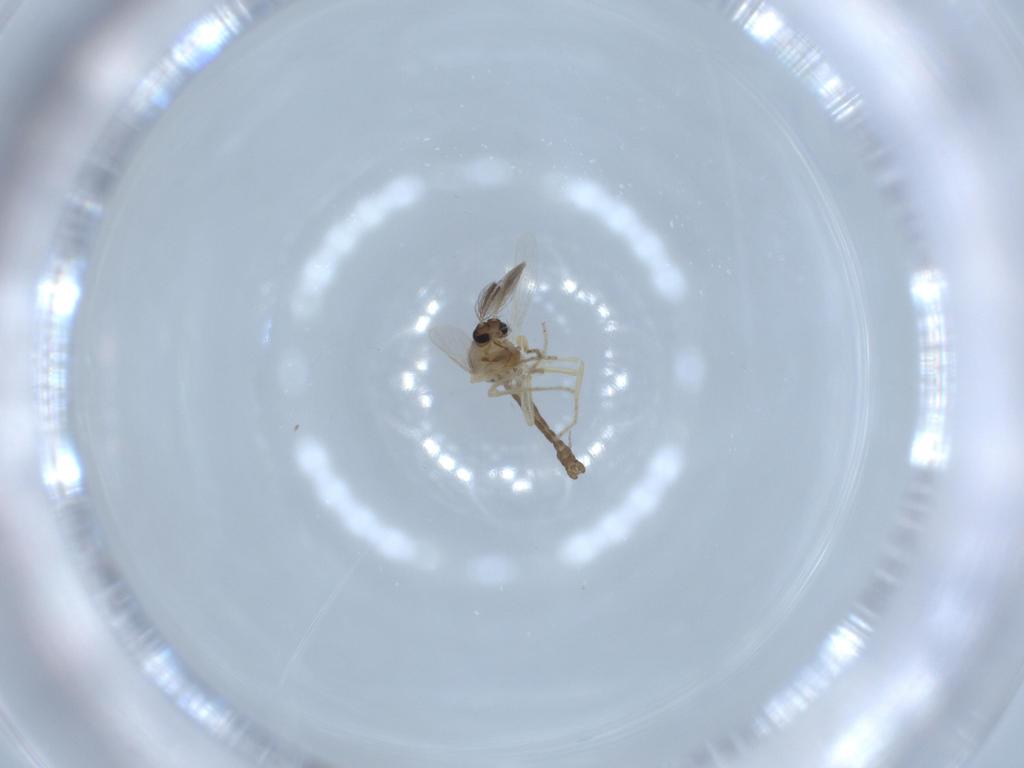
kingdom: Animalia
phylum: Arthropoda
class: Insecta
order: Diptera
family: Ceratopogonidae
